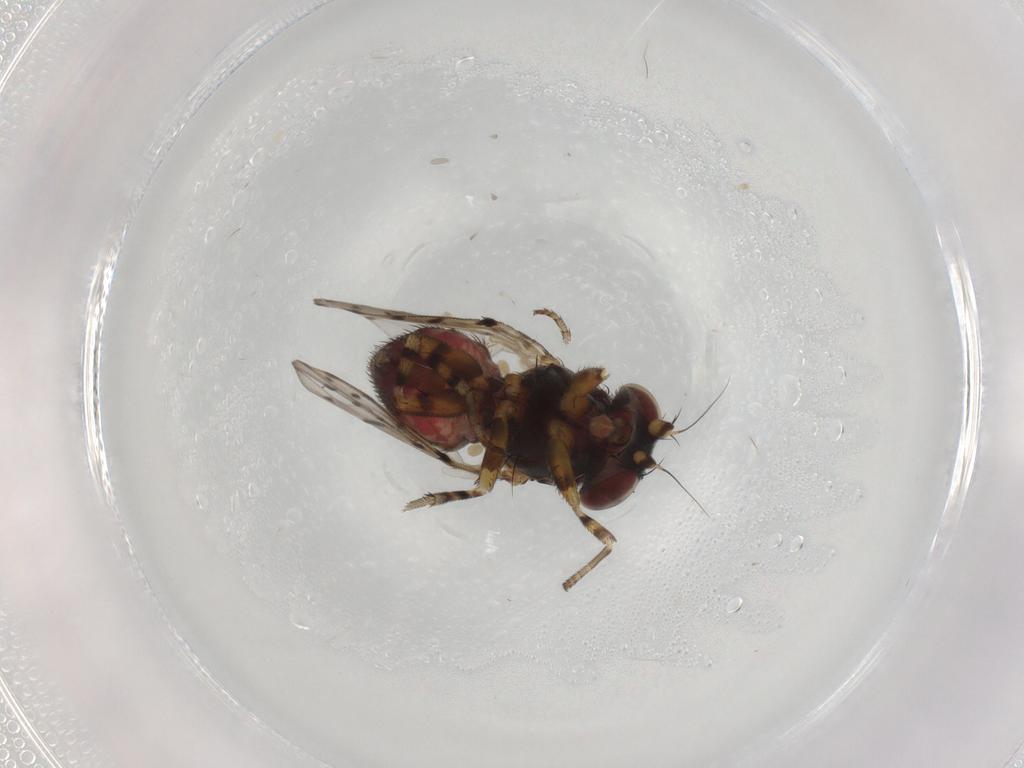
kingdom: Animalia
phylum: Arthropoda
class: Insecta
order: Diptera
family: Odiniidae
